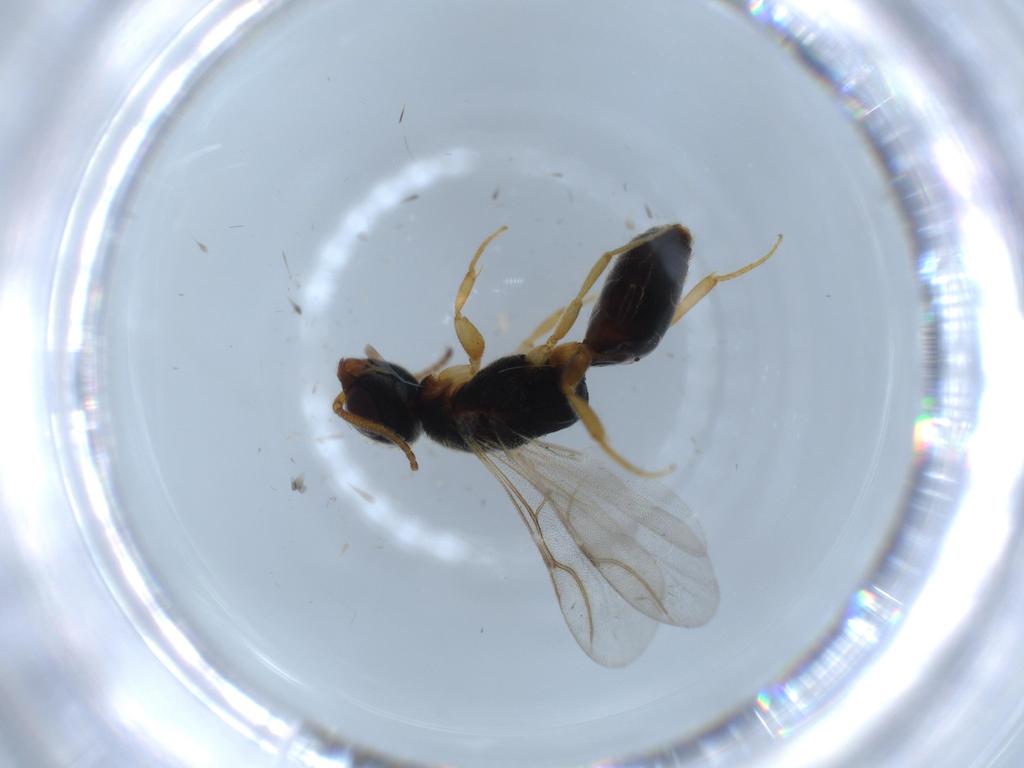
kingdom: Animalia
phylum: Arthropoda
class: Insecta
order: Hymenoptera
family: Bethylidae
